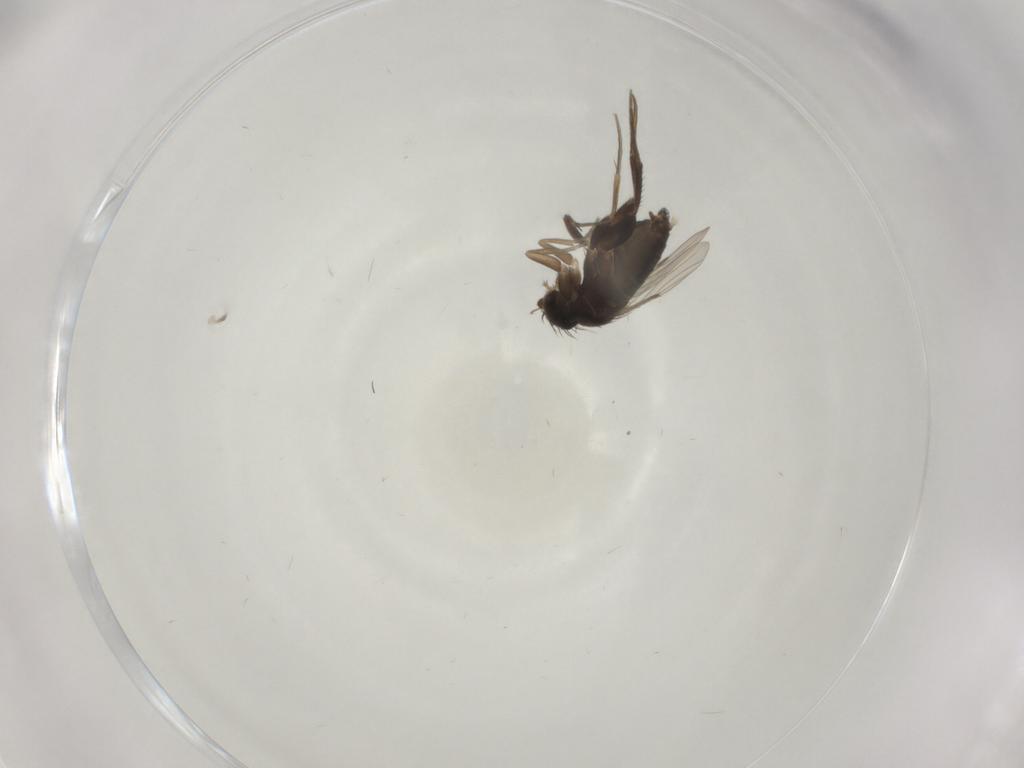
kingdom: Animalia
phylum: Arthropoda
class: Insecta
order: Diptera
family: Cecidomyiidae
